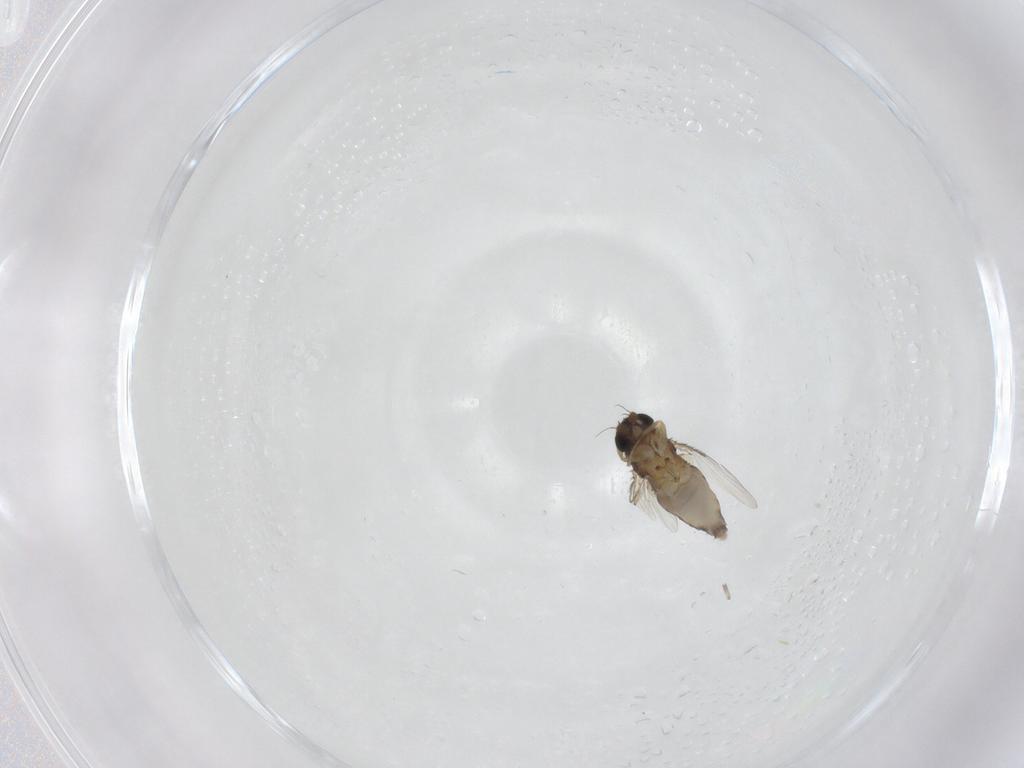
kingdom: Animalia
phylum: Arthropoda
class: Insecta
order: Diptera
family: Phoridae
